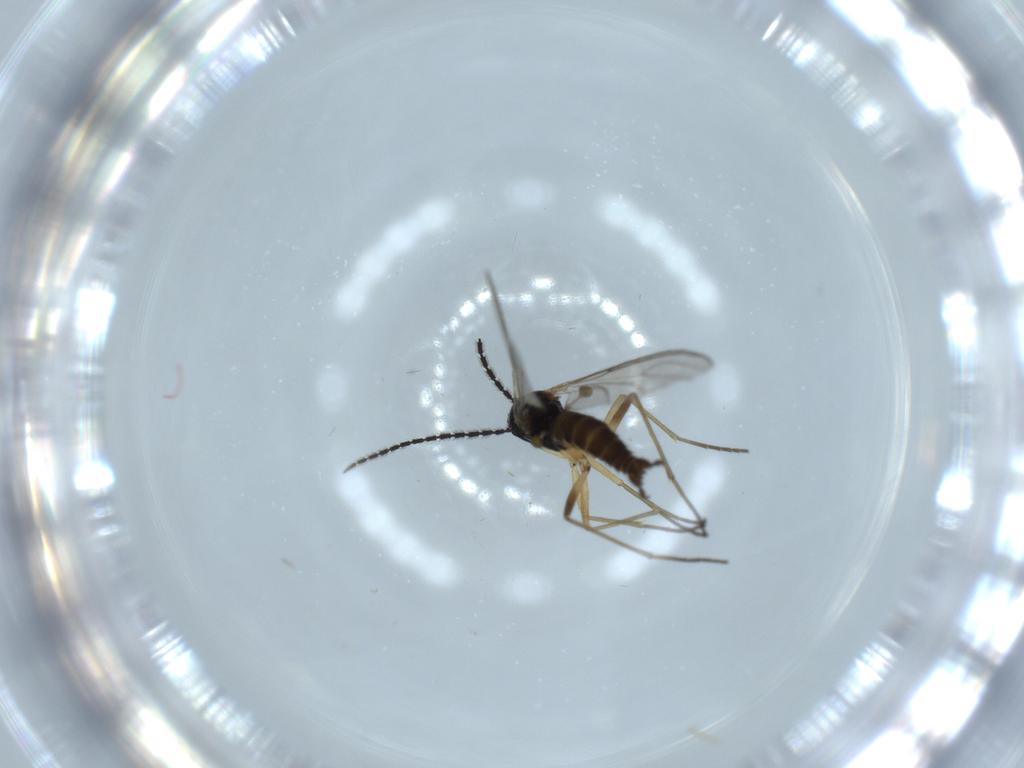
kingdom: Animalia
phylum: Arthropoda
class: Insecta
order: Diptera
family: Sciaridae
